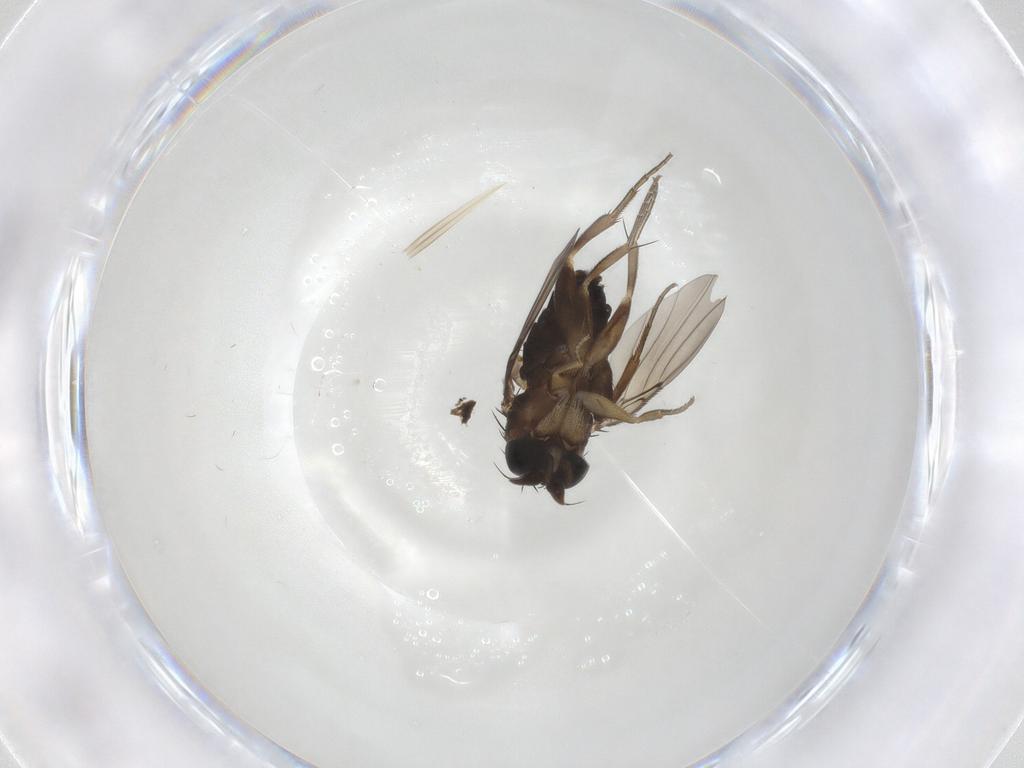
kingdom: Animalia
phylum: Arthropoda
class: Insecta
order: Diptera
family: Phoridae
